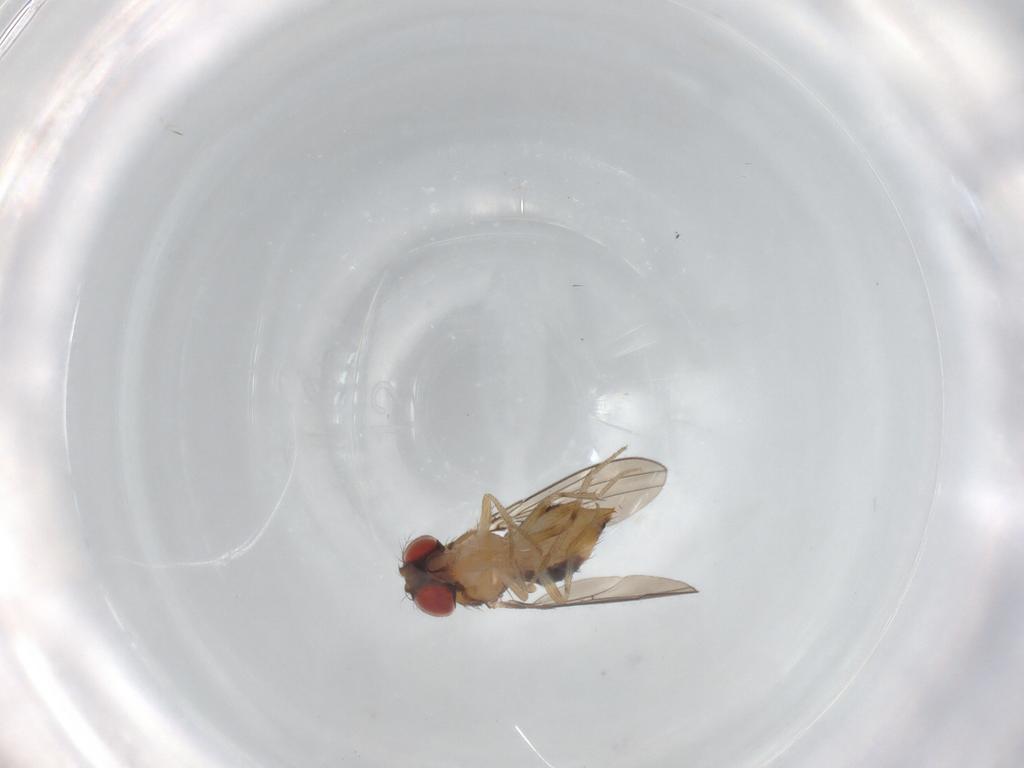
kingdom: Animalia
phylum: Arthropoda
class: Insecta
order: Diptera
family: Drosophilidae
